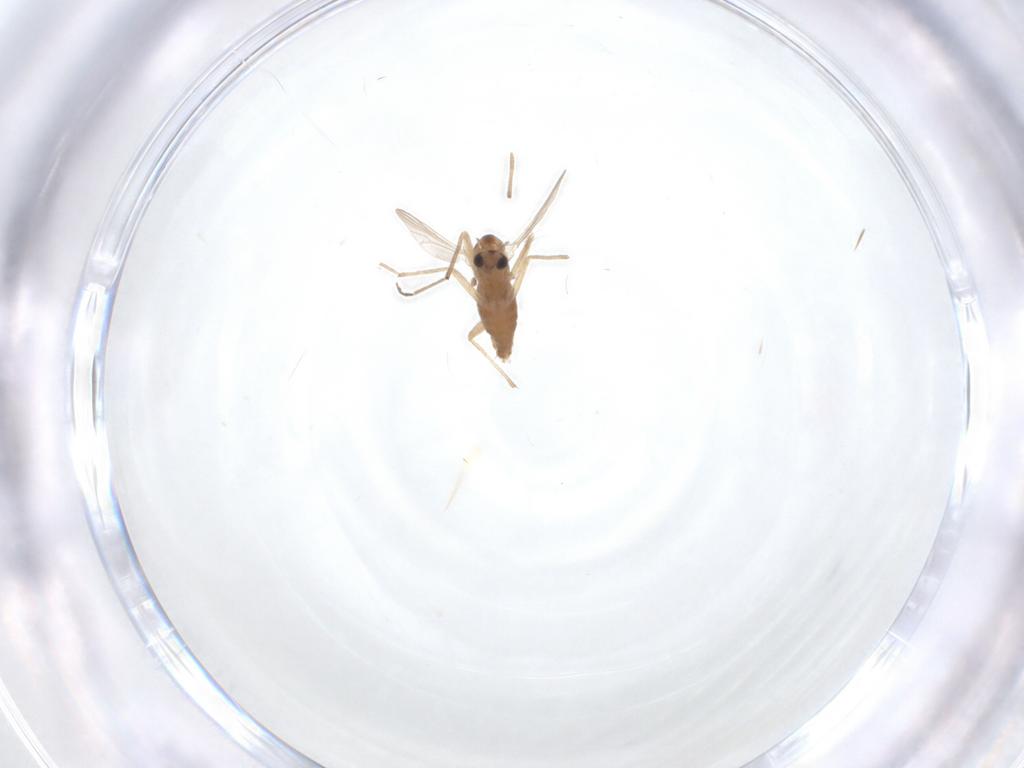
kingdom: Animalia
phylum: Arthropoda
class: Insecta
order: Diptera
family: Chironomidae
